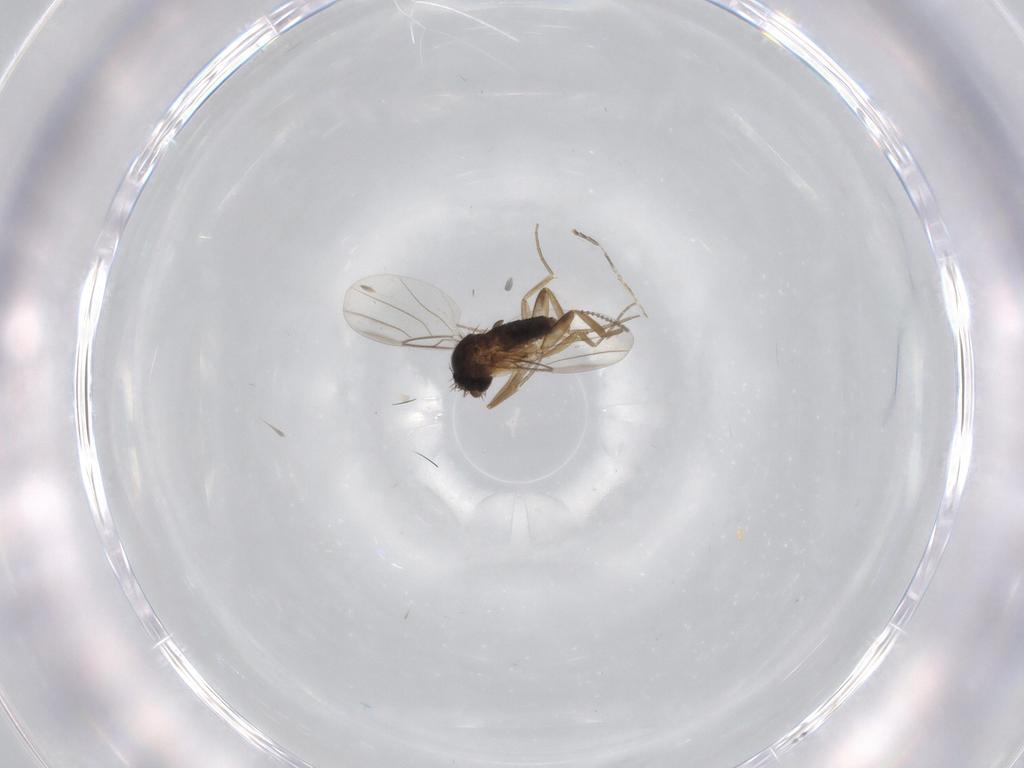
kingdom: Animalia
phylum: Arthropoda
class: Insecta
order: Diptera
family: Phoridae
